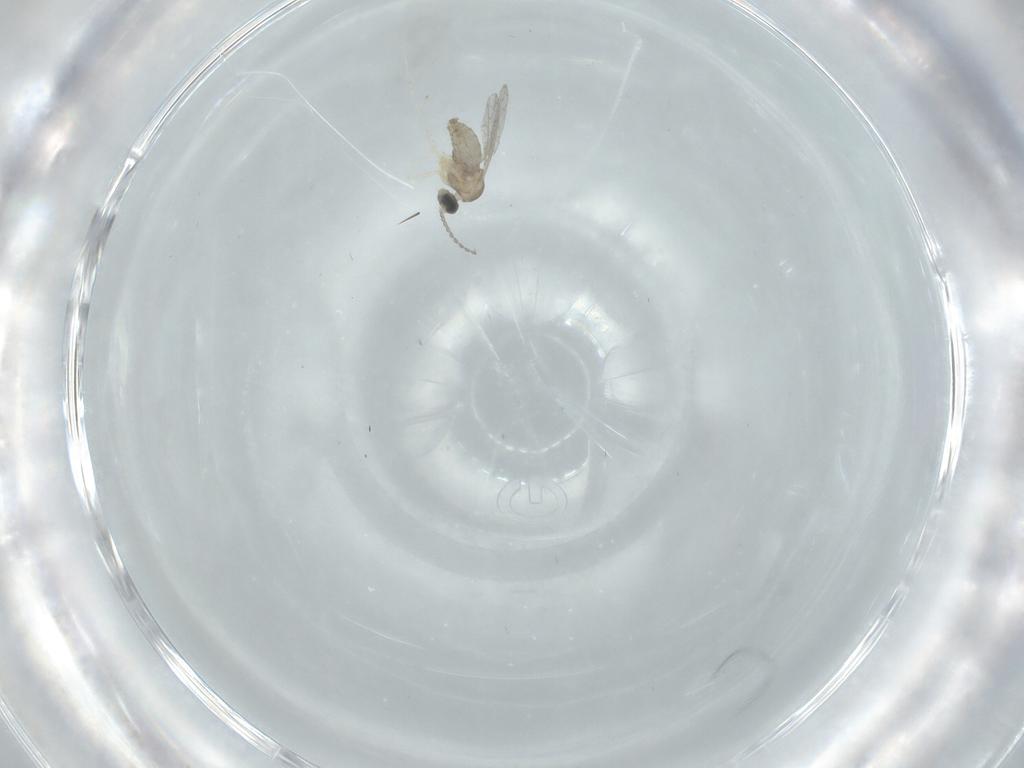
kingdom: Animalia
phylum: Arthropoda
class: Insecta
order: Diptera
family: Cecidomyiidae
